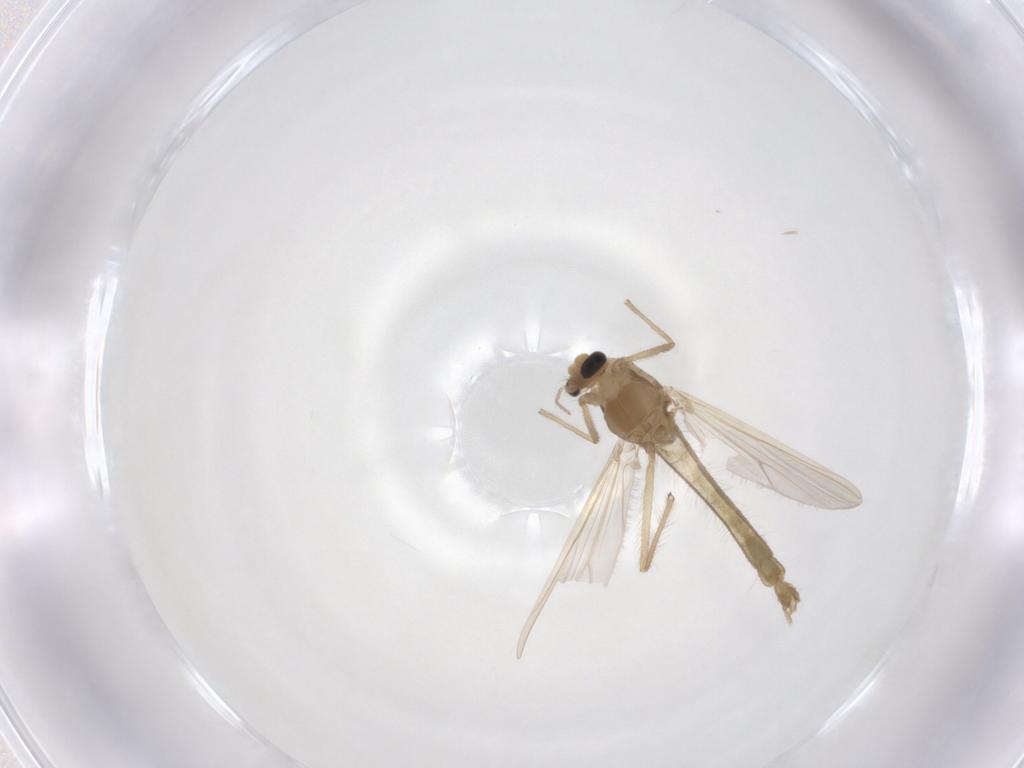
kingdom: Animalia
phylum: Arthropoda
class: Insecta
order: Diptera
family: Chironomidae
